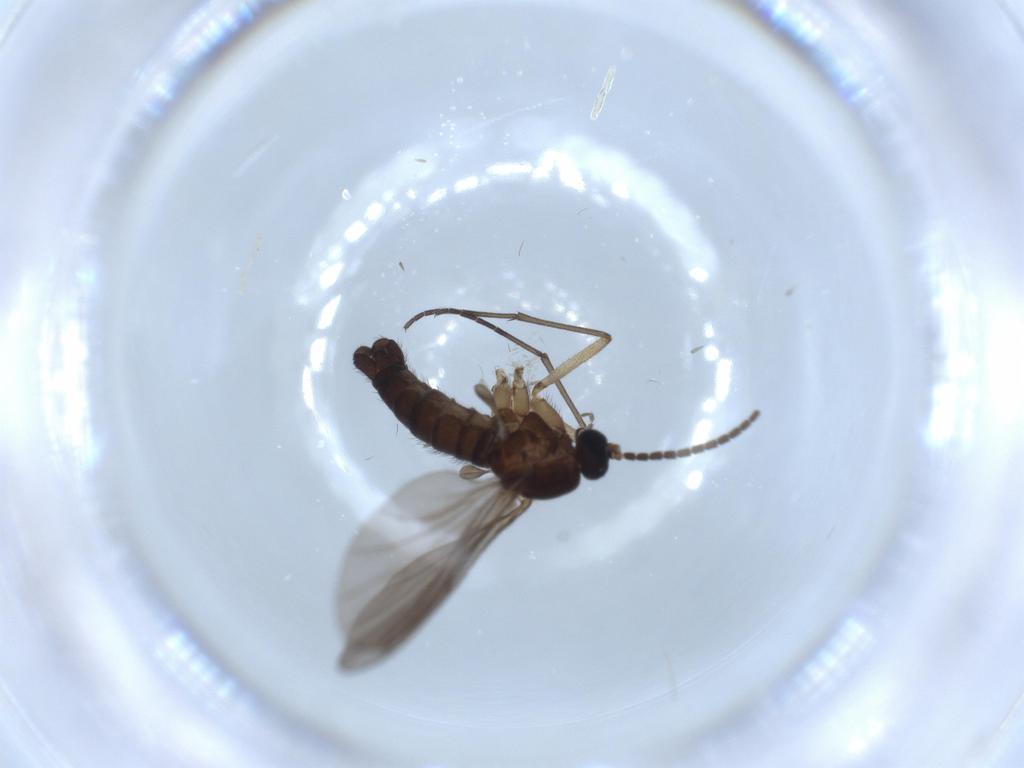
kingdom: Animalia
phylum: Arthropoda
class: Insecta
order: Diptera
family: Sciaridae
